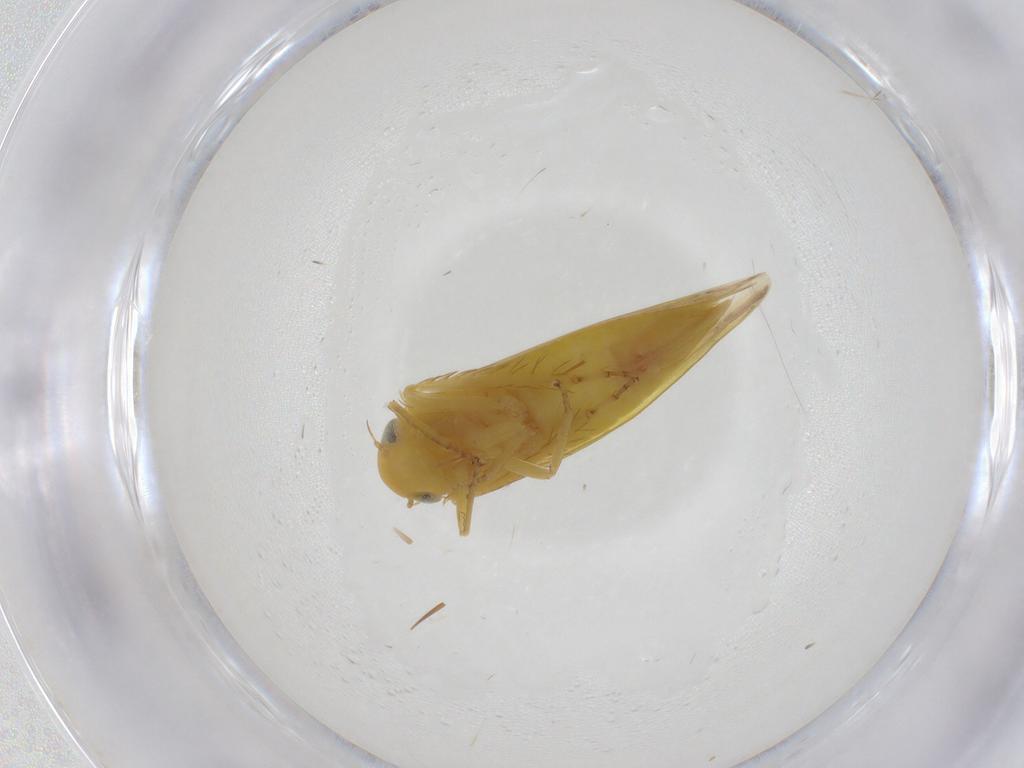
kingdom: Animalia
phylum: Arthropoda
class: Insecta
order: Hemiptera
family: Cicadellidae
